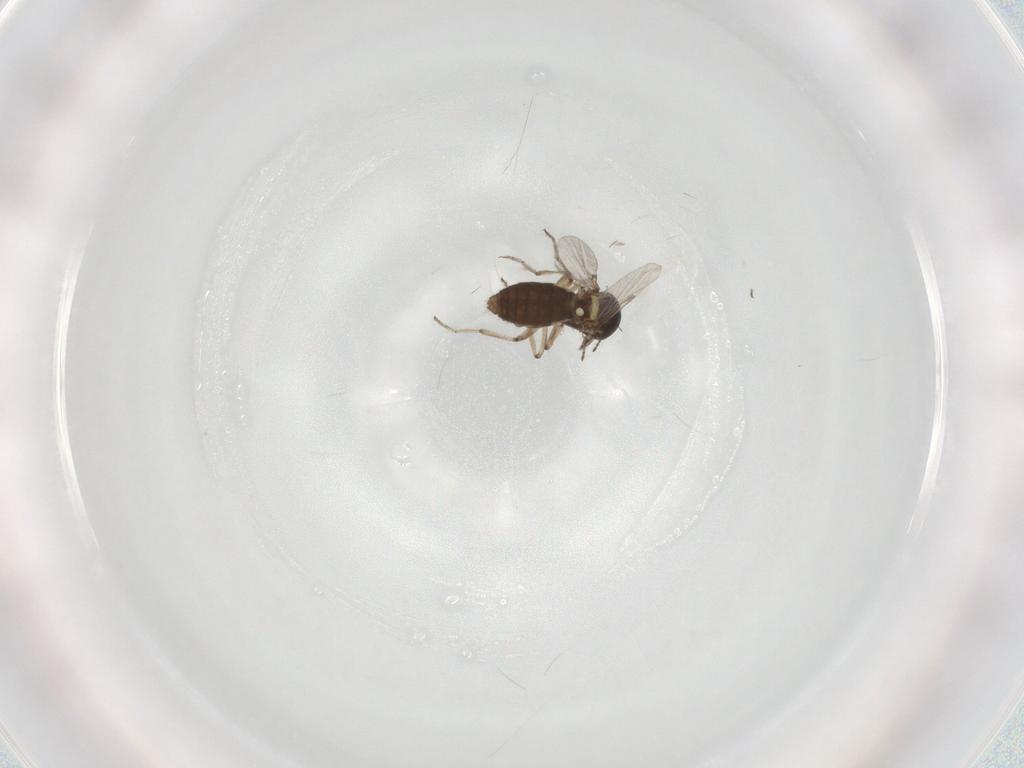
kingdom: Animalia
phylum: Arthropoda
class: Insecta
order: Diptera
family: Ceratopogonidae
